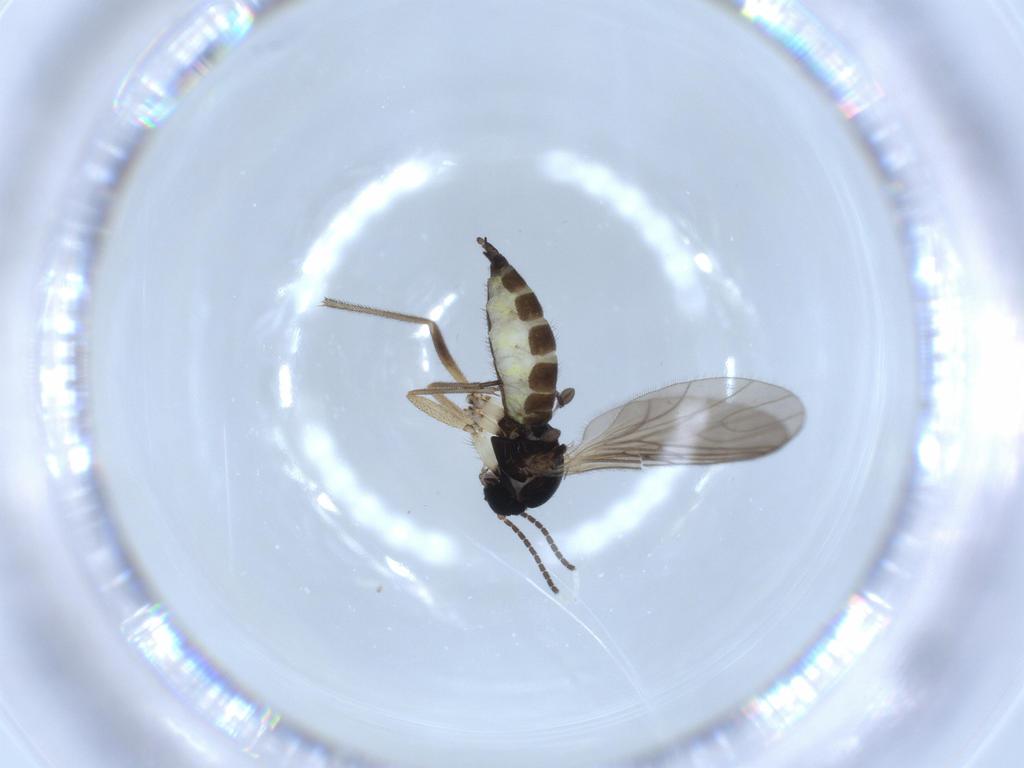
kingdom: Animalia
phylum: Arthropoda
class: Insecta
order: Diptera
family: Sciaridae
